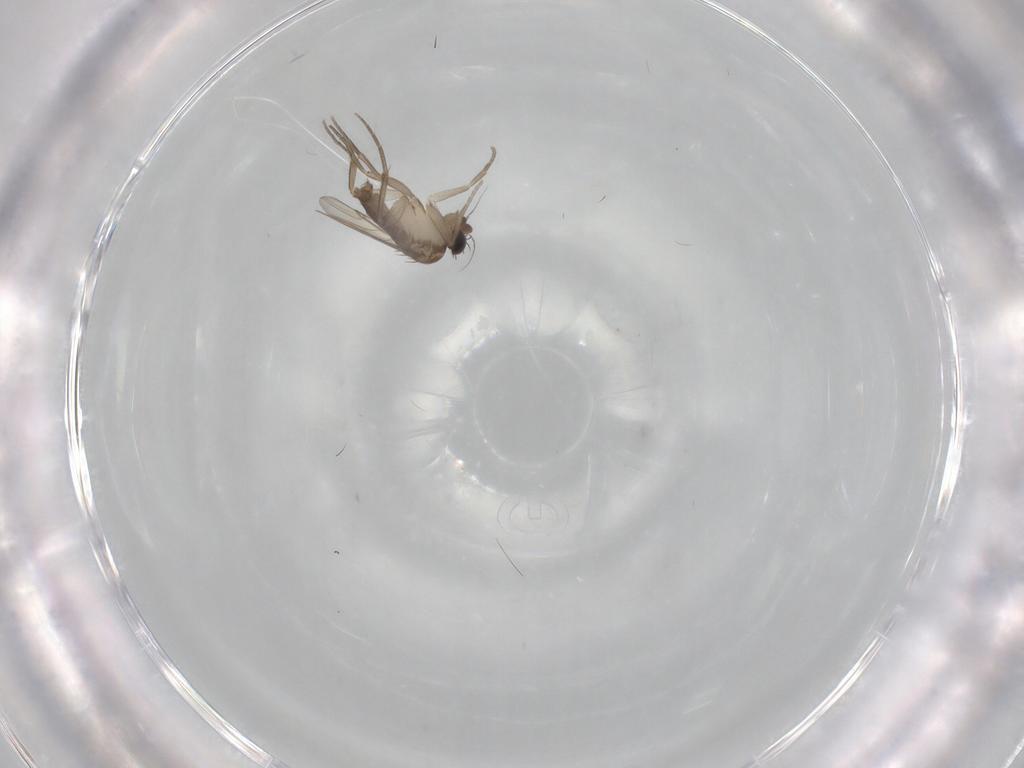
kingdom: Animalia
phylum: Arthropoda
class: Insecta
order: Diptera
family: Phoridae
